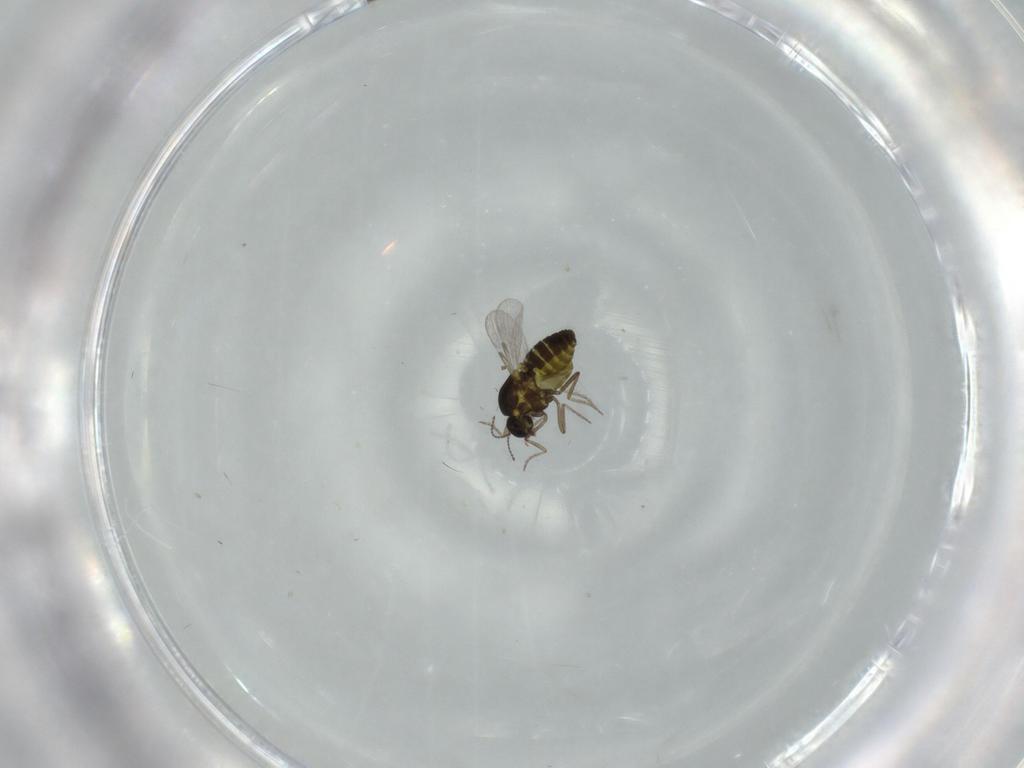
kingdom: Animalia
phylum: Arthropoda
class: Insecta
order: Diptera
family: Ceratopogonidae
